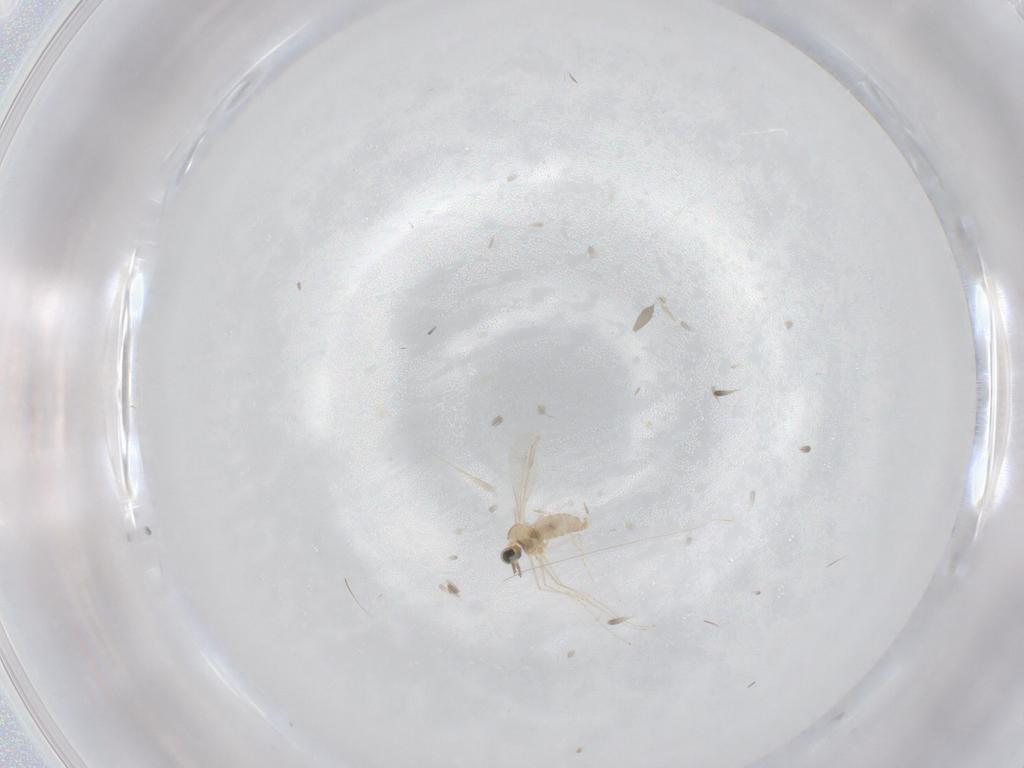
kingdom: Animalia
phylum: Arthropoda
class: Insecta
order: Diptera
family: Cecidomyiidae
